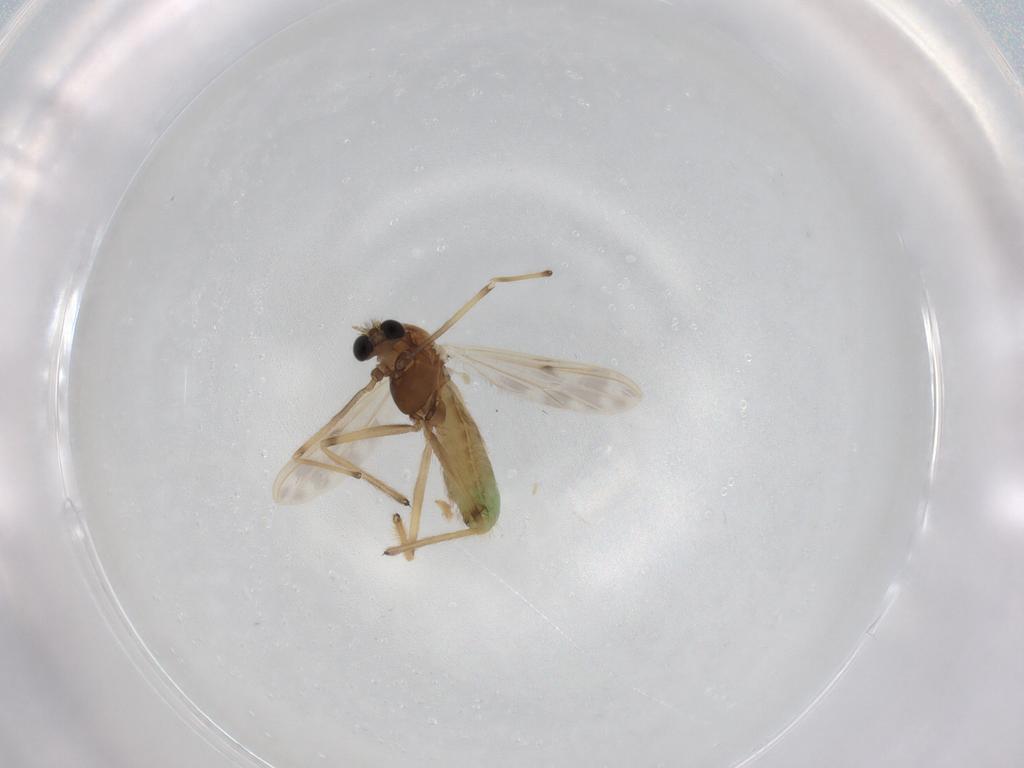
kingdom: Animalia
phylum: Arthropoda
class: Insecta
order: Diptera
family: Chironomidae
